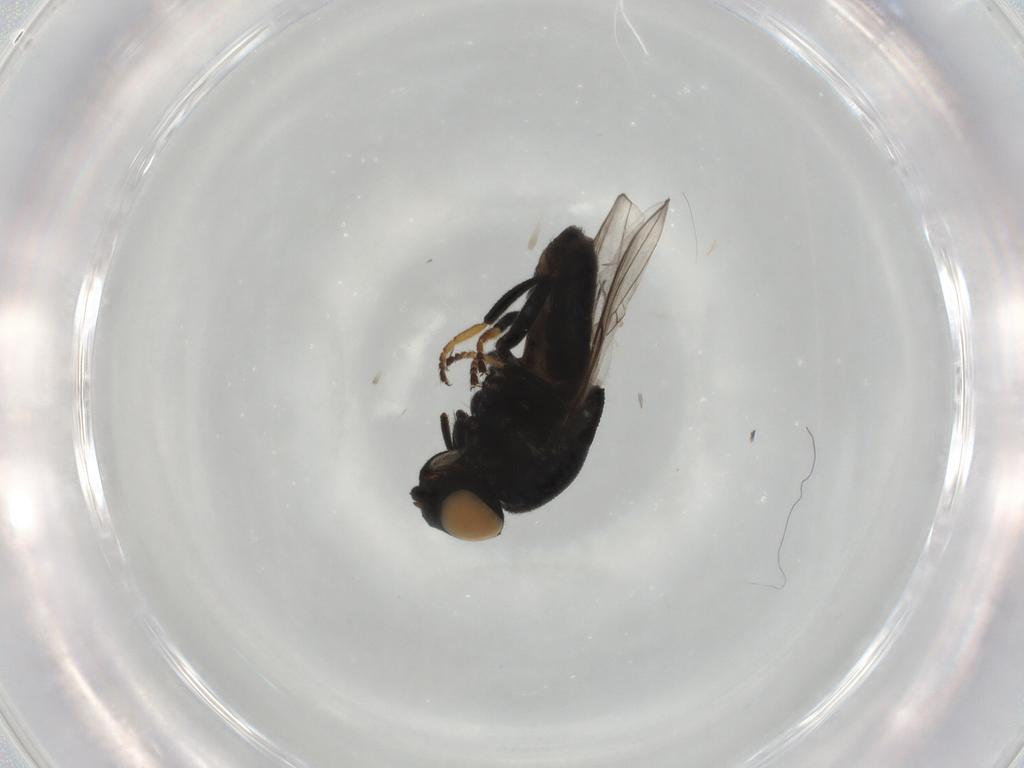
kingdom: Animalia
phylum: Arthropoda
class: Insecta
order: Diptera
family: Chloropidae
